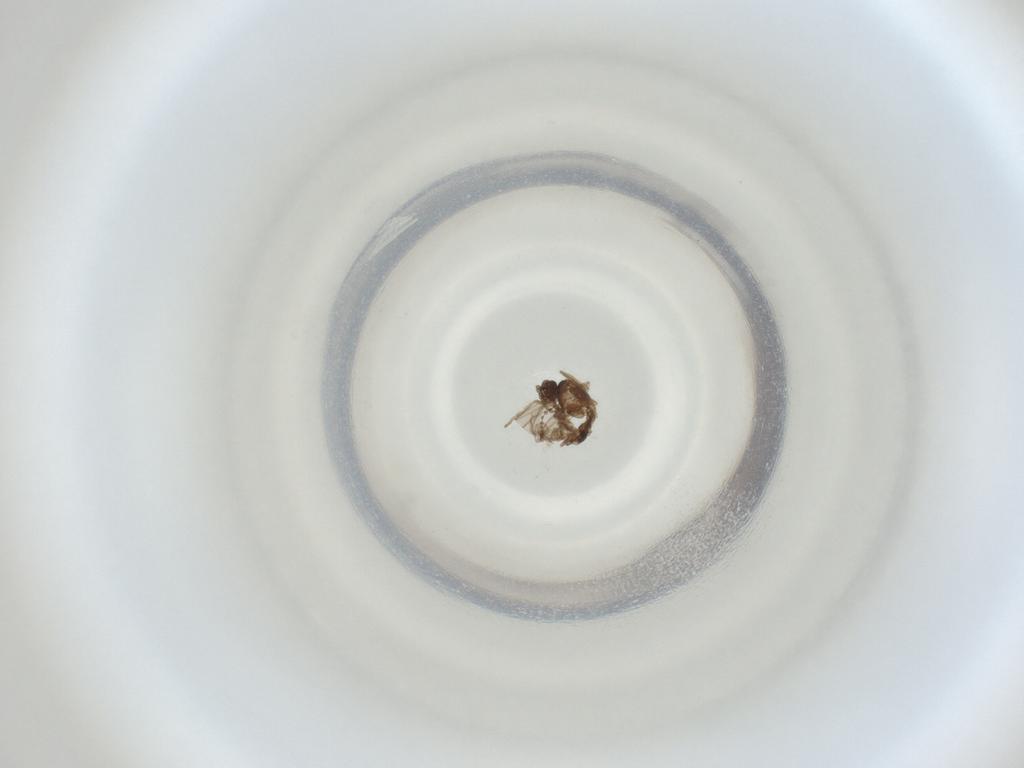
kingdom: Animalia
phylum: Arthropoda
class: Insecta
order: Diptera
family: Cecidomyiidae
